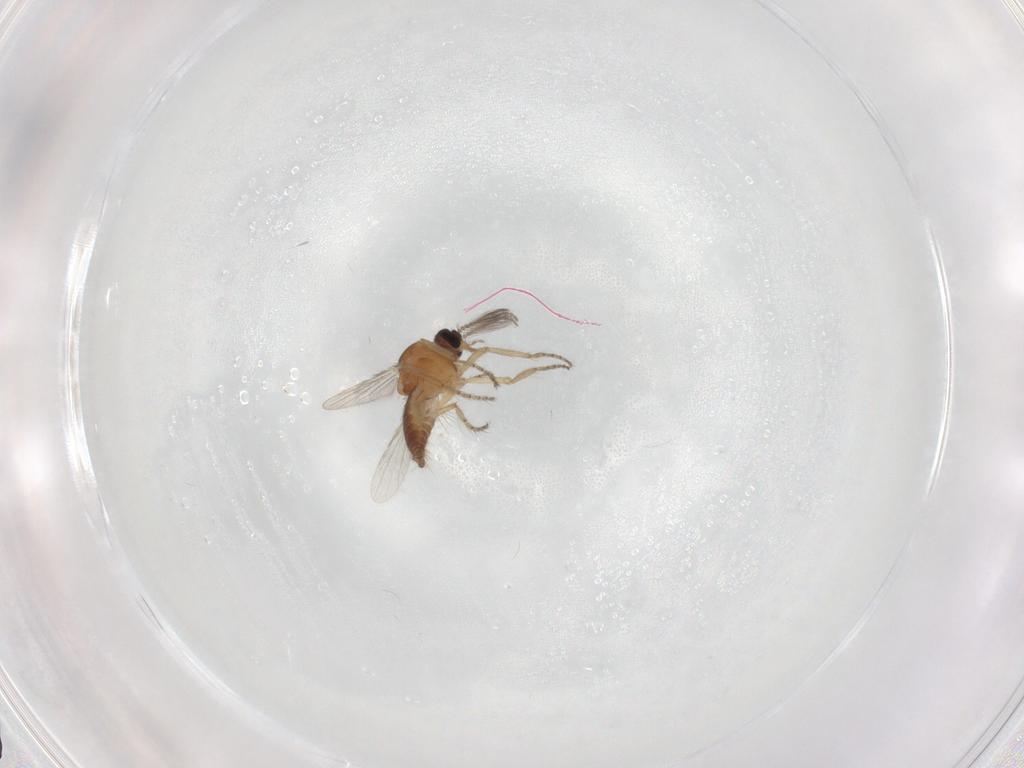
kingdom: Animalia
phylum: Arthropoda
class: Insecta
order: Diptera
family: Ceratopogonidae
